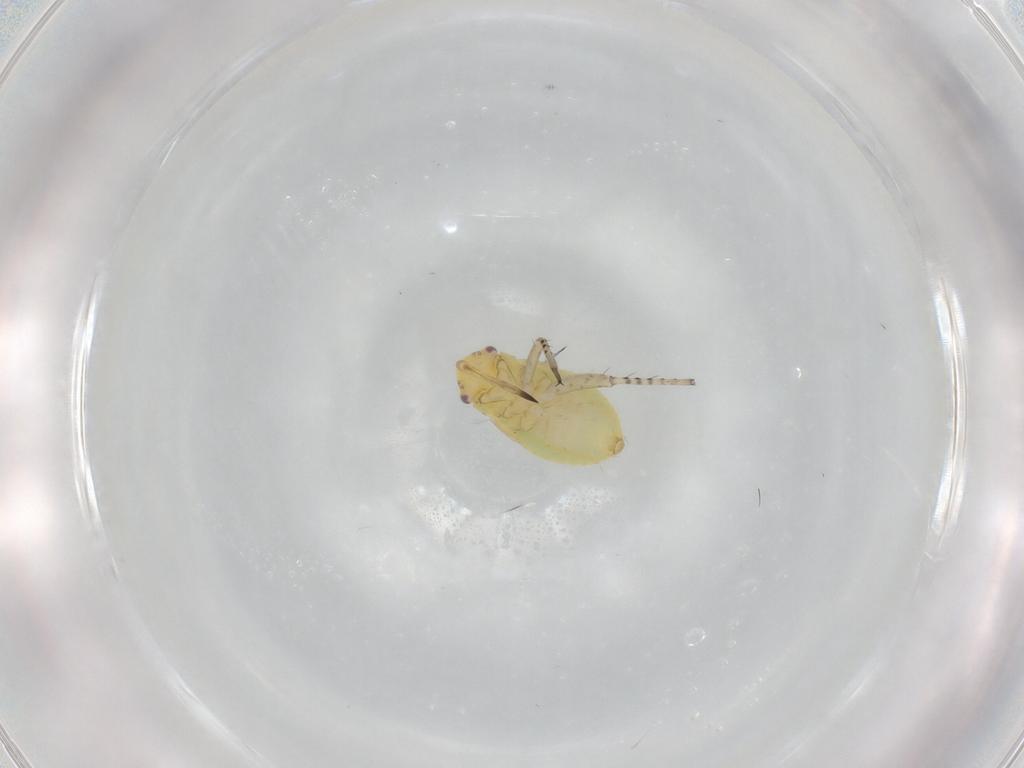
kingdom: Animalia
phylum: Arthropoda
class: Insecta
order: Hemiptera
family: Miridae
